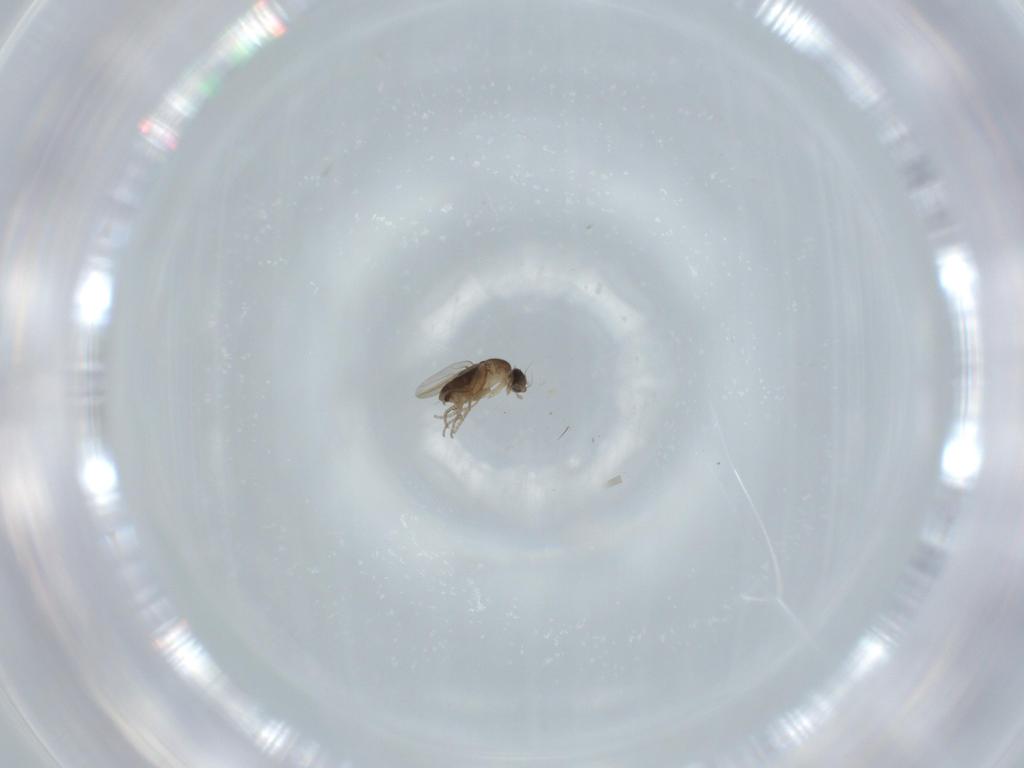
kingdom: Animalia
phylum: Arthropoda
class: Insecta
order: Diptera
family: Phoridae
